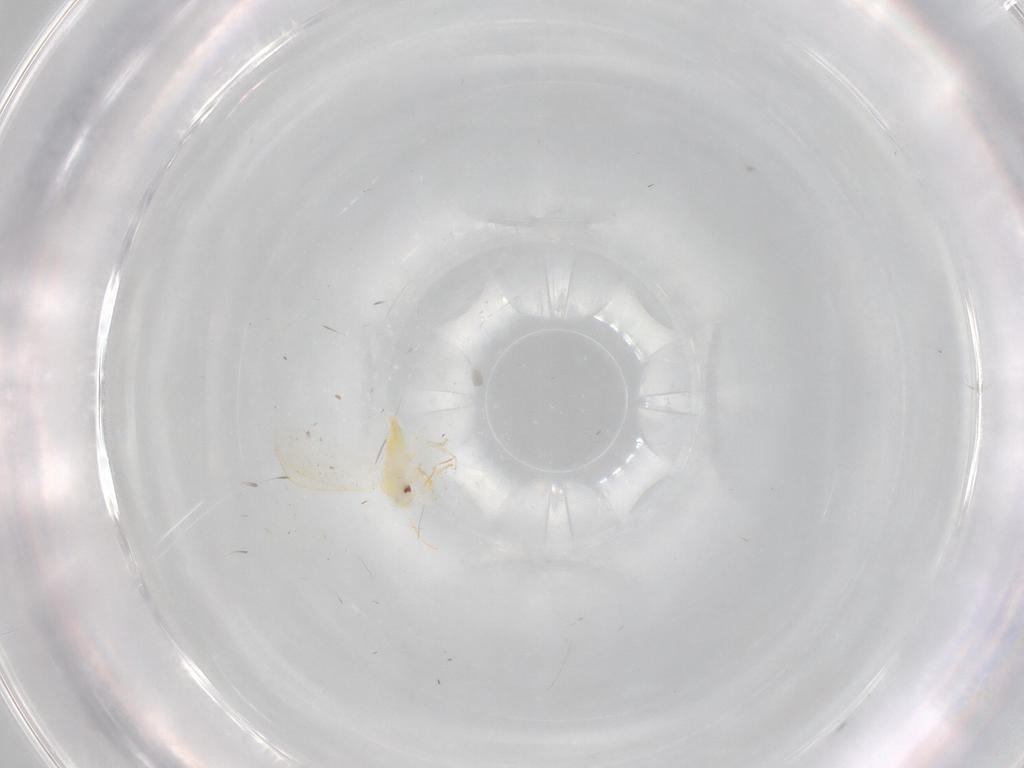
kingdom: Animalia
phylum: Arthropoda
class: Insecta
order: Hemiptera
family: Aleyrodidae
